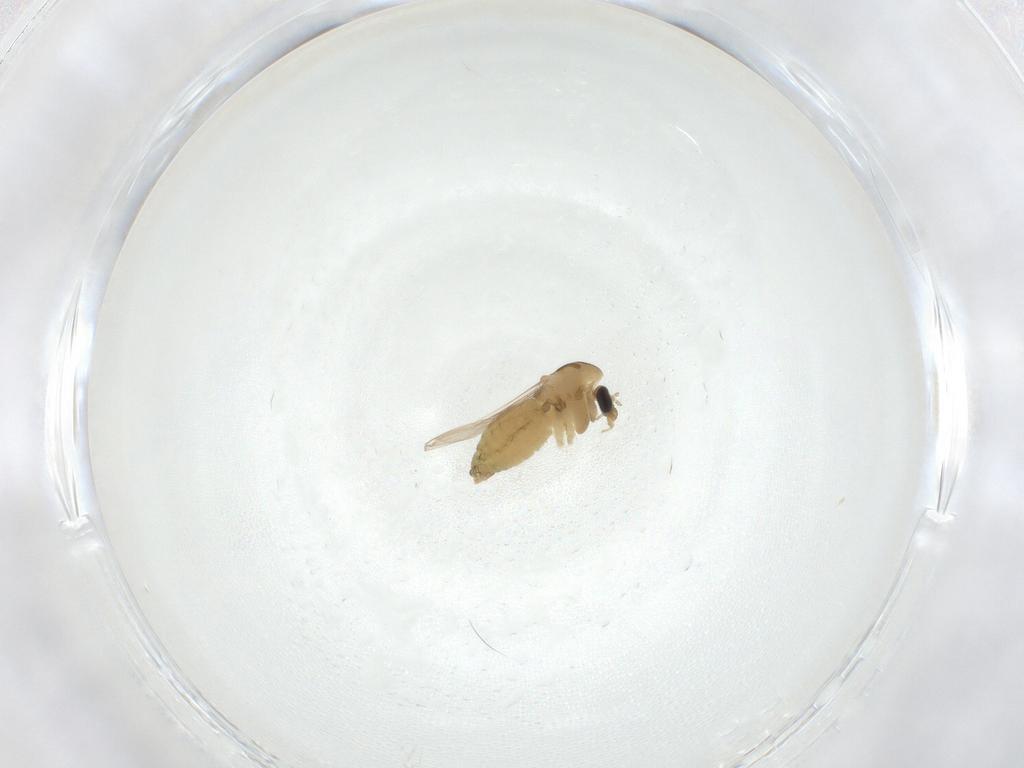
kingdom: Animalia
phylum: Arthropoda
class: Insecta
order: Diptera
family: Chironomidae
